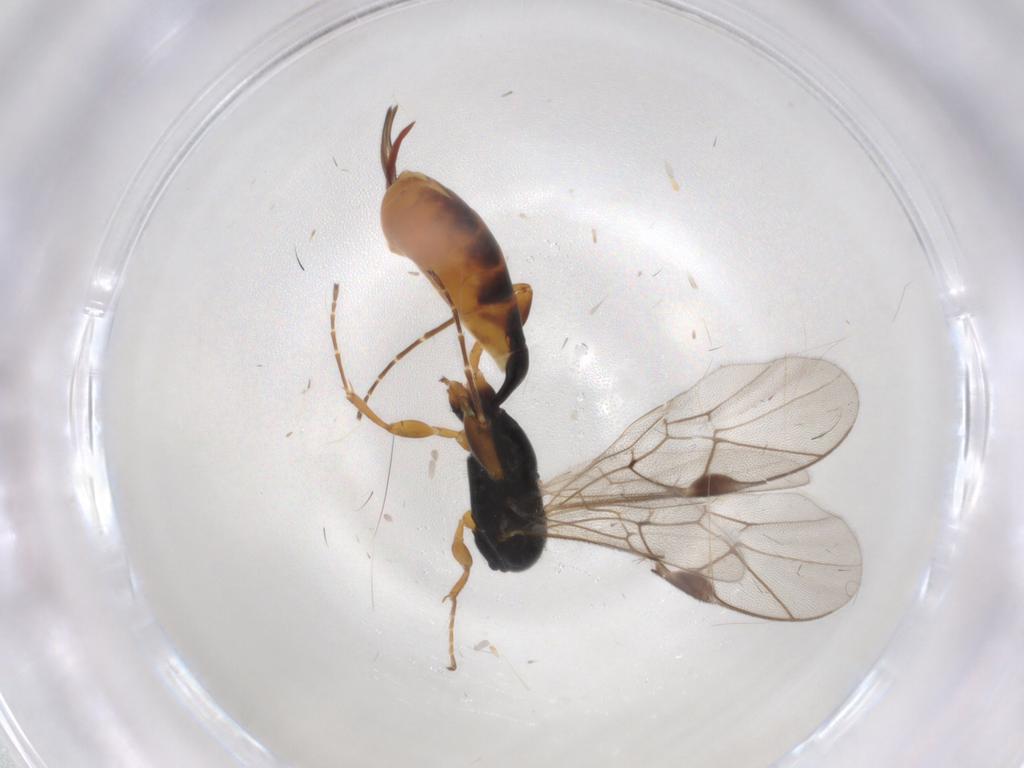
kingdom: Animalia
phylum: Arthropoda
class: Insecta
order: Hymenoptera
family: Ichneumonidae
